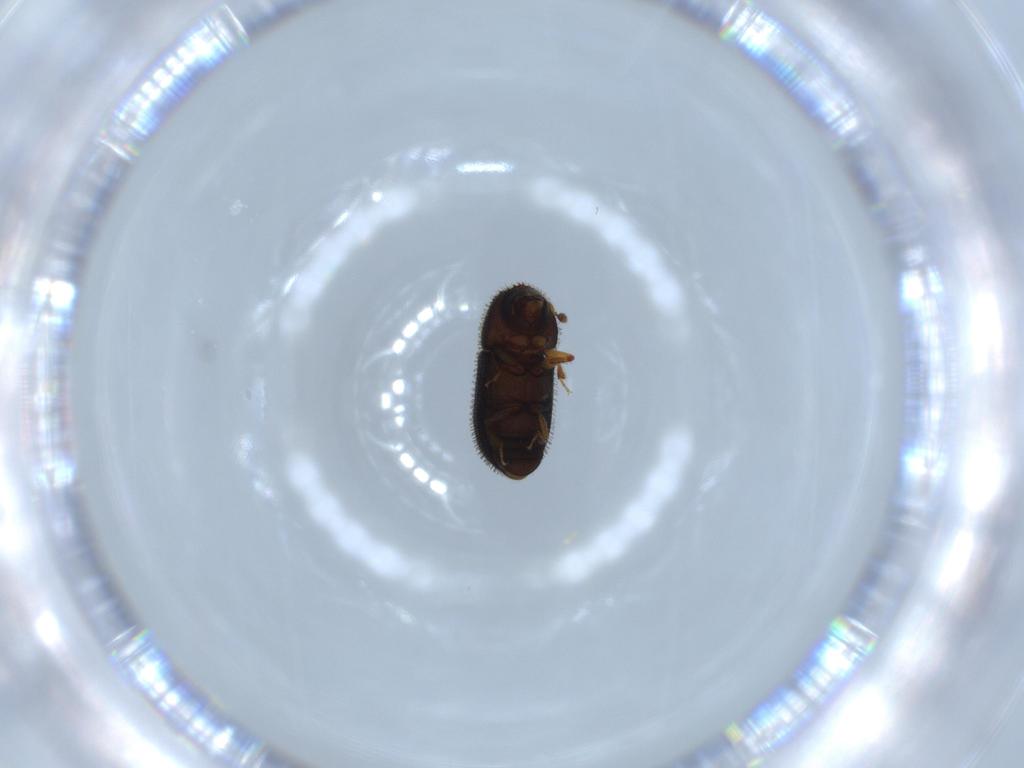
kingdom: Animalia
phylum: Arthropoda
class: Insecta
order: Coleoptera
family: Curculionidae
